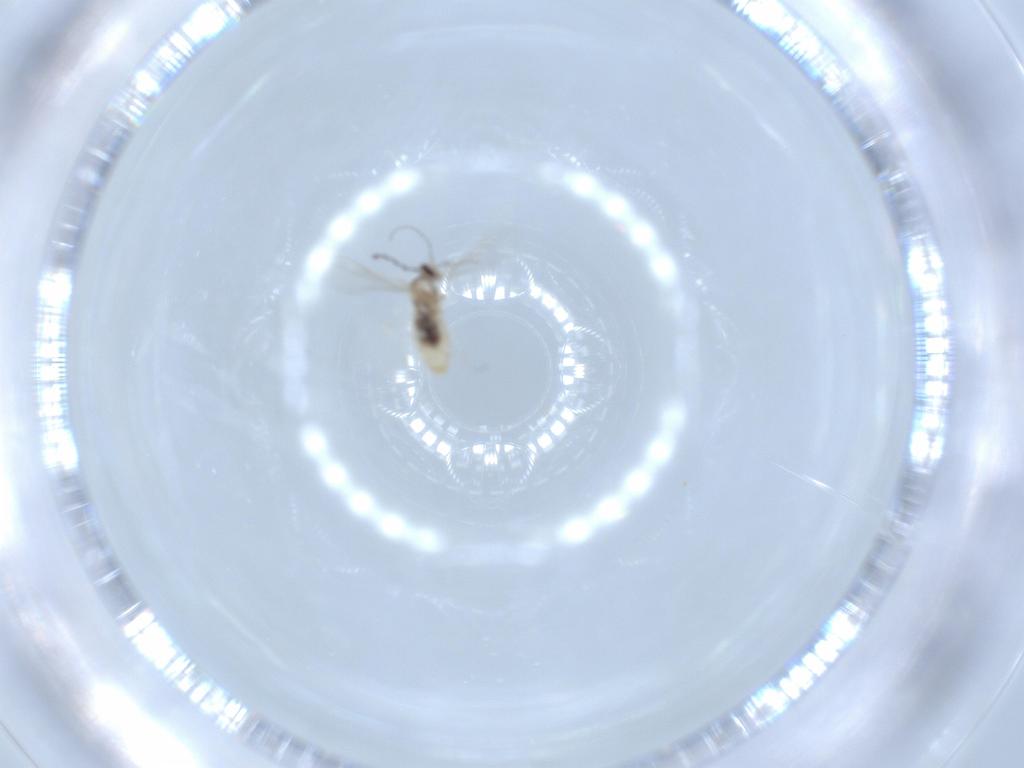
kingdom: Animalia
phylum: Arthropoda
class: Insecta
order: Diptera
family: Cecidomyiidae
